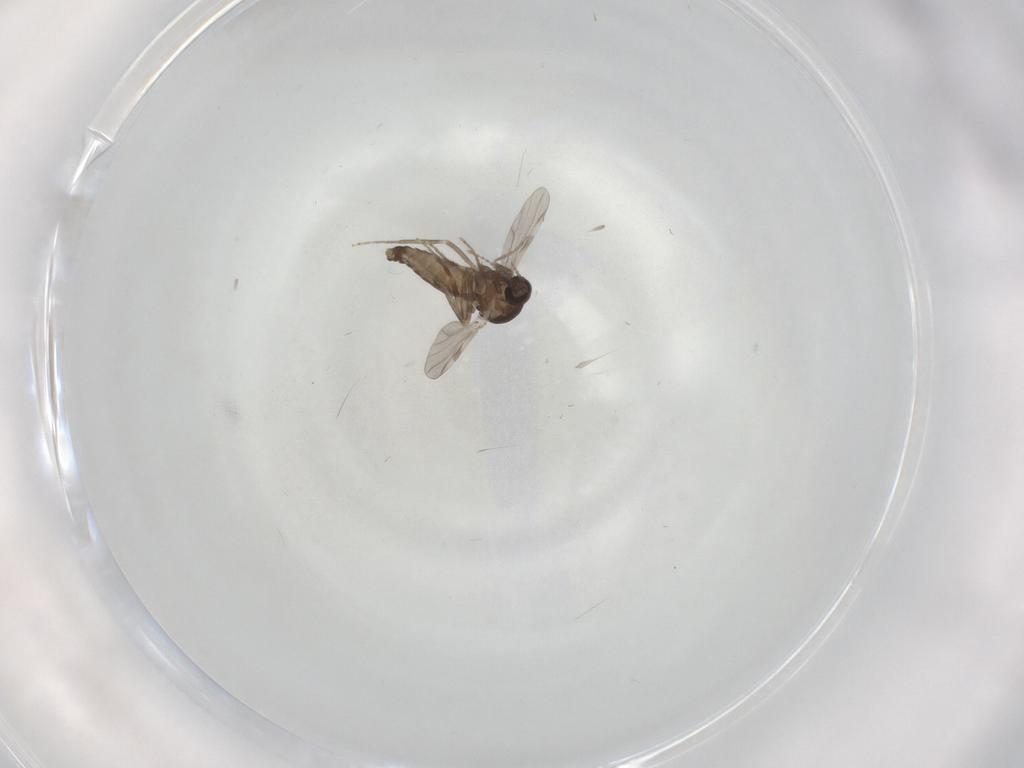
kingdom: Animalia
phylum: Arthropoda
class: Insecta
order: Diptera
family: Ceratopogonidae
